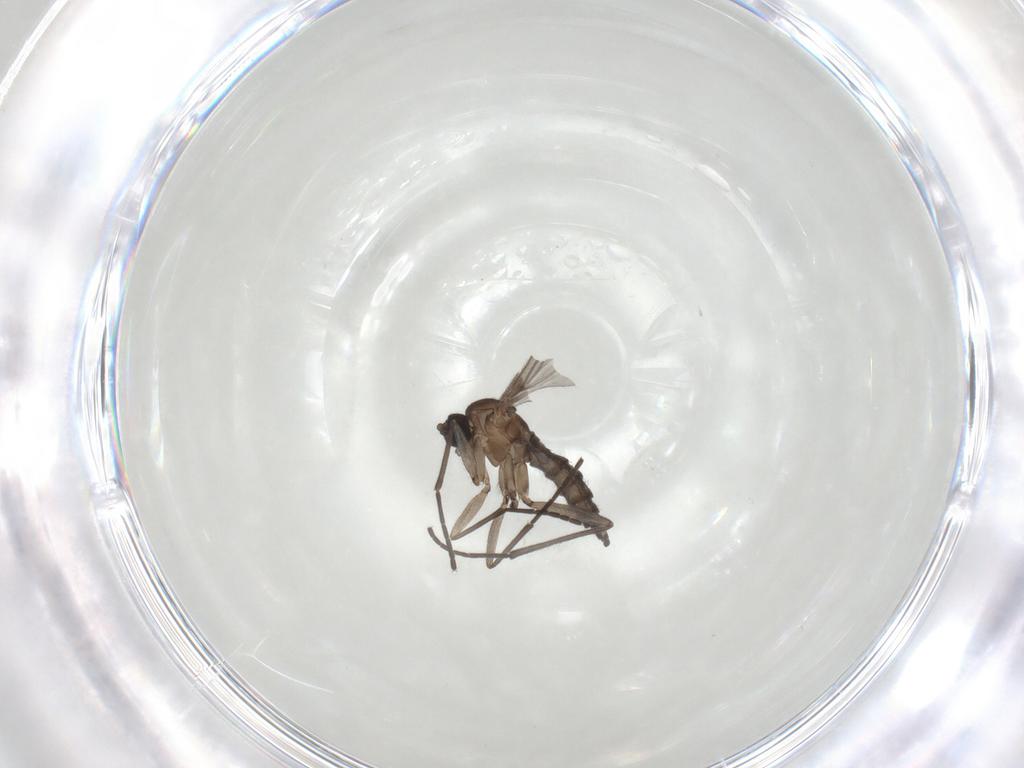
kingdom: Animalia
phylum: Arthropoda
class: Insecta
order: Diptera
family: Sciaridae
